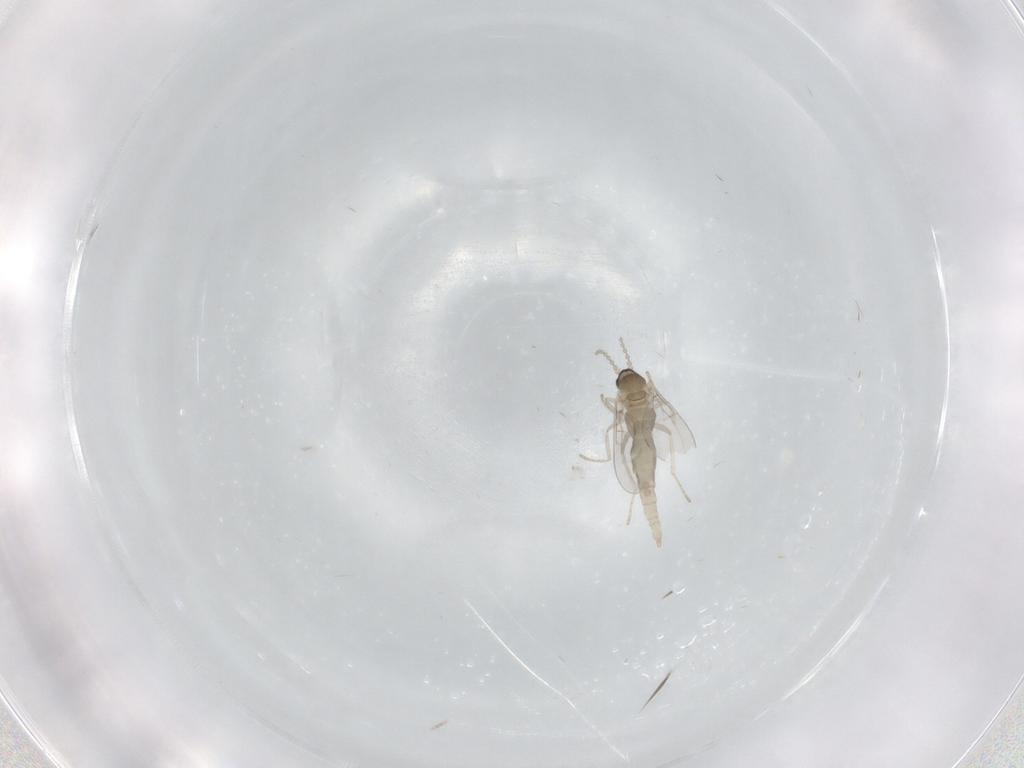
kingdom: Animalia
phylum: Arthropoda
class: Insecta
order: Diptera
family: Cecidomyiidae
